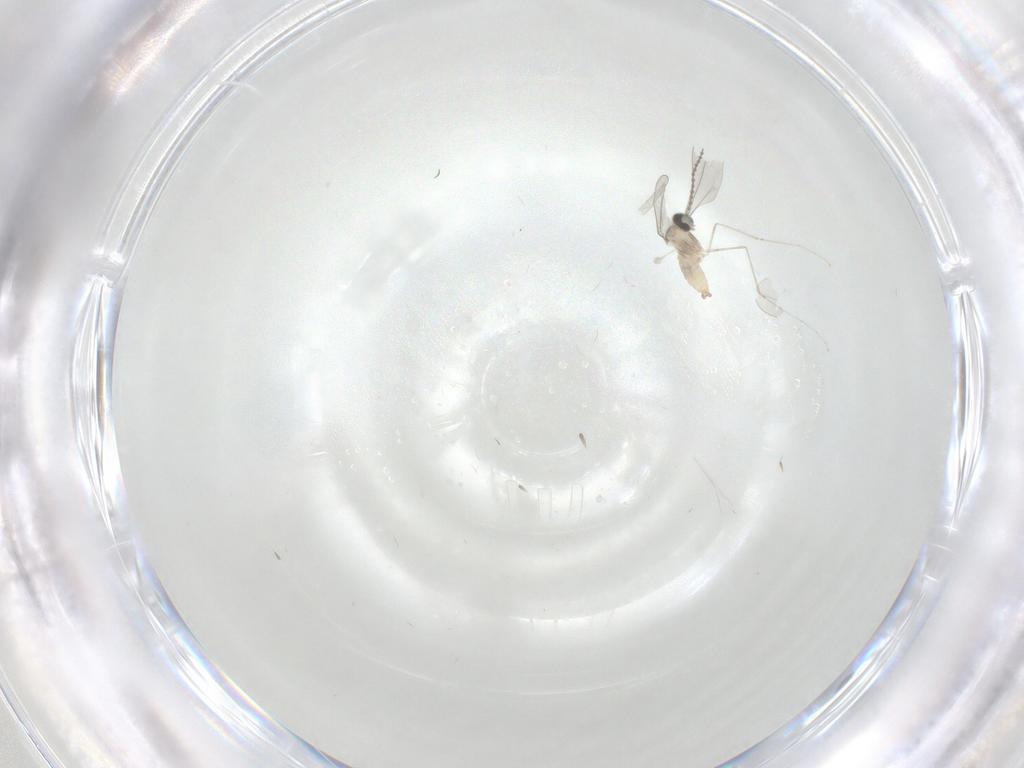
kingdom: Animalia
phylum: Arthropoda
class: Insecta
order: Diptera
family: Cecidomyiidae
